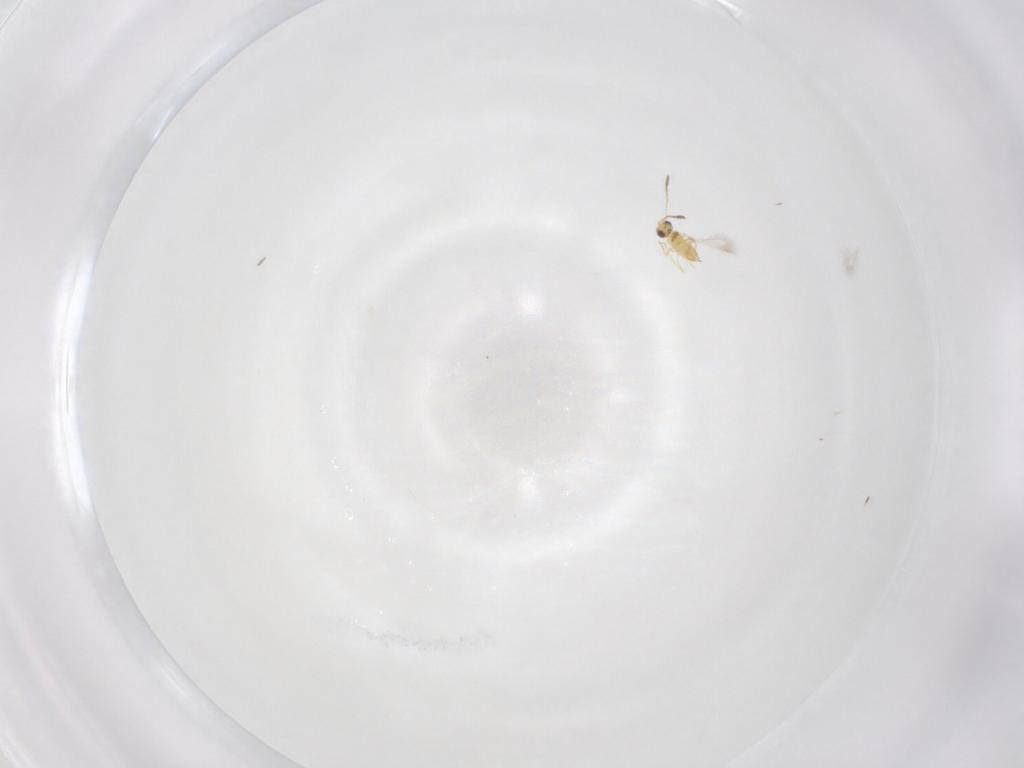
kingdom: Animalia
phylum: Arthropoda
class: Insecta
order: Hymenoptera
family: Mymaridae
